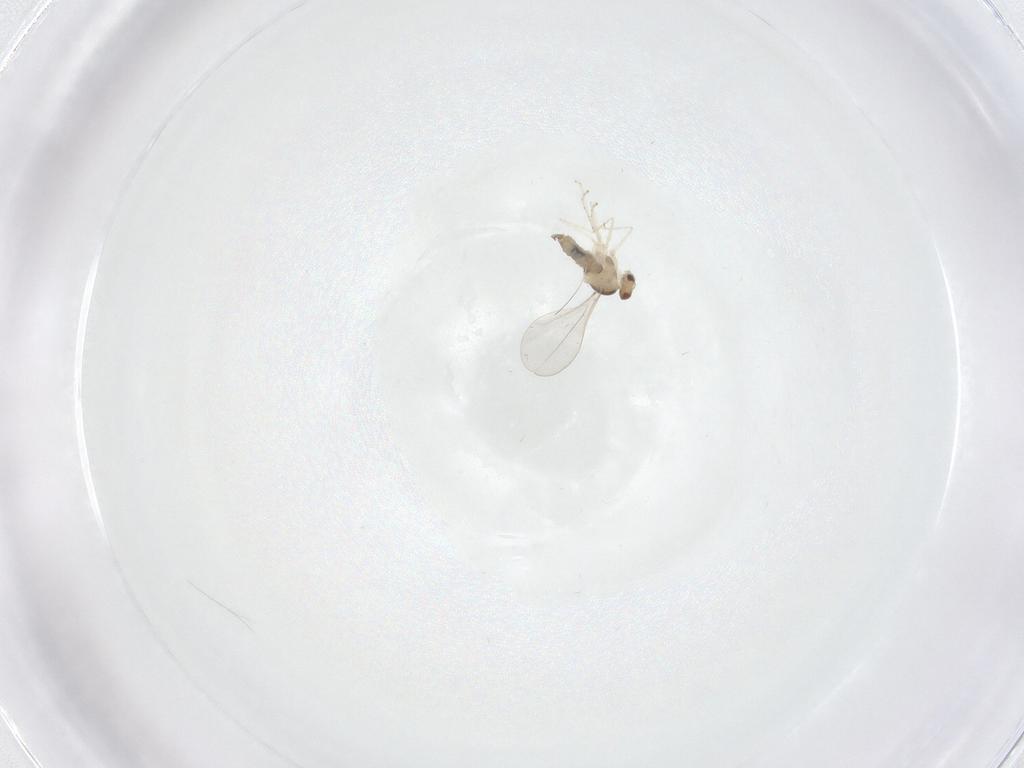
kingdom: Animalia
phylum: Arthropoda
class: Insecta
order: Diptera
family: Cecidomyiidae
